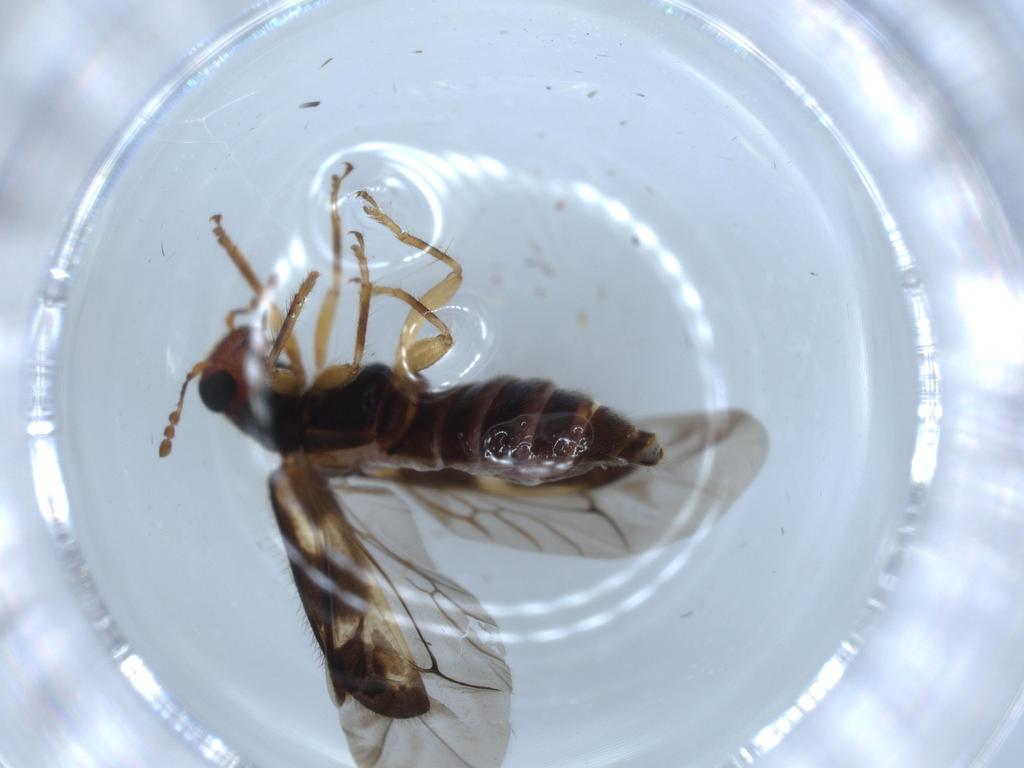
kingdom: Animalia
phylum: Arthropoda
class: Insecta
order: Coleoptera
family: Cleridae
